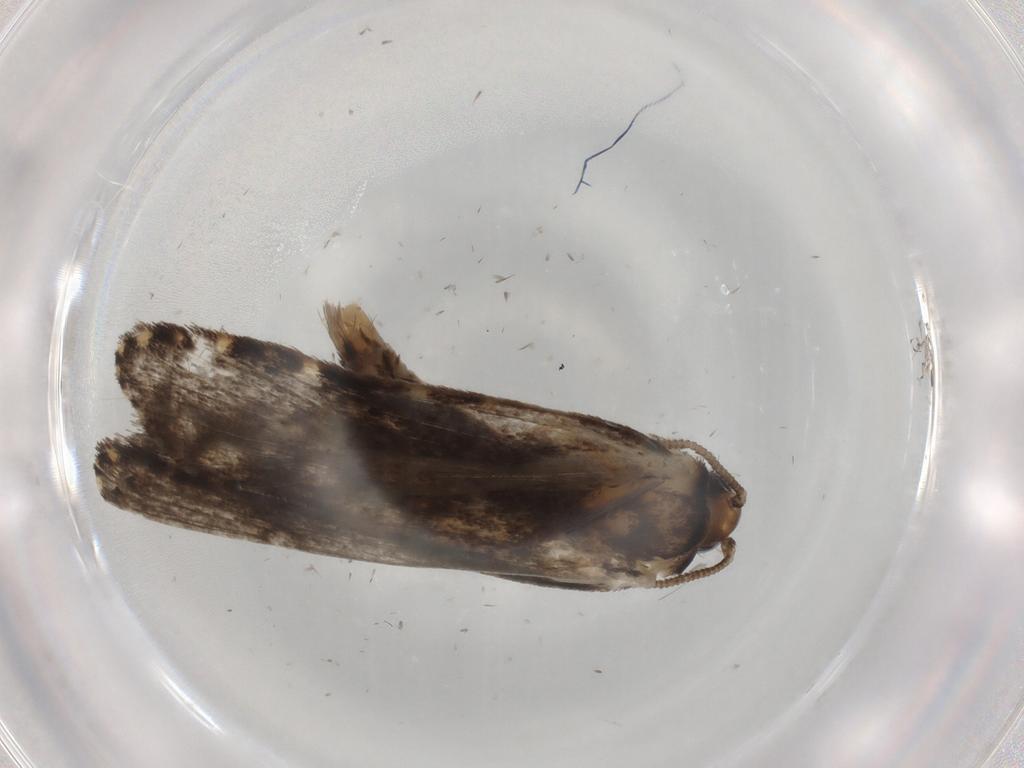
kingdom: Animalia
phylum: Arthropoda
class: Insecta
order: Lepidoptera
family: Tineidae
